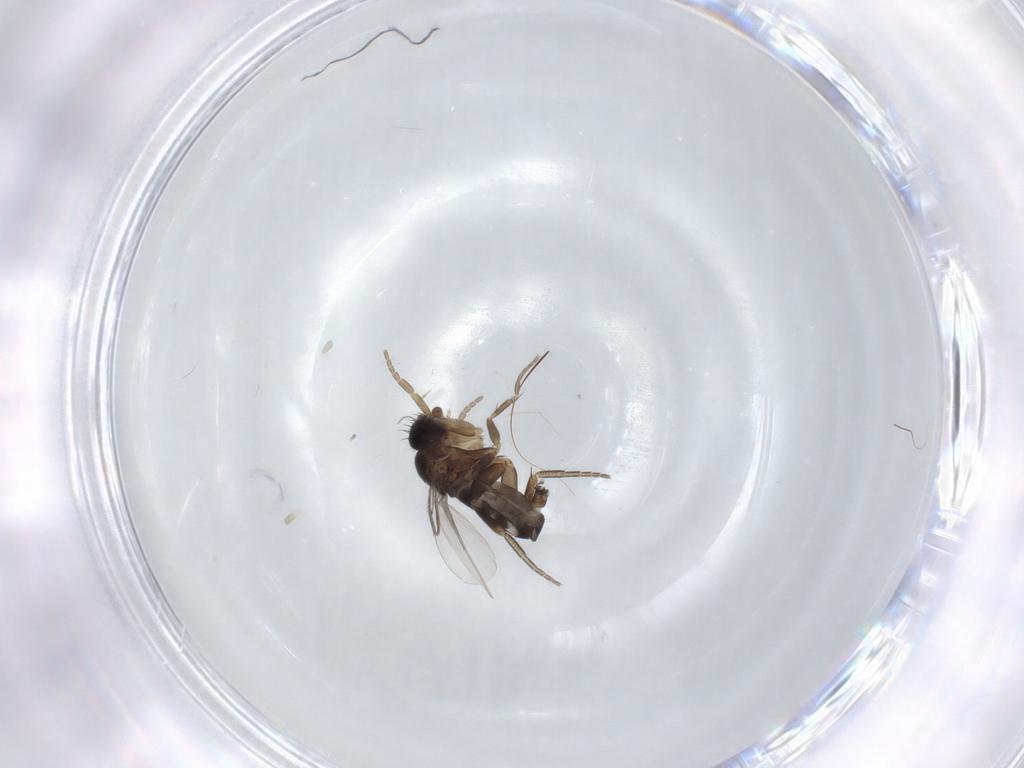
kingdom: Animalia
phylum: Arthropoda
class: Insecta
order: Diptera
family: Phoridae
